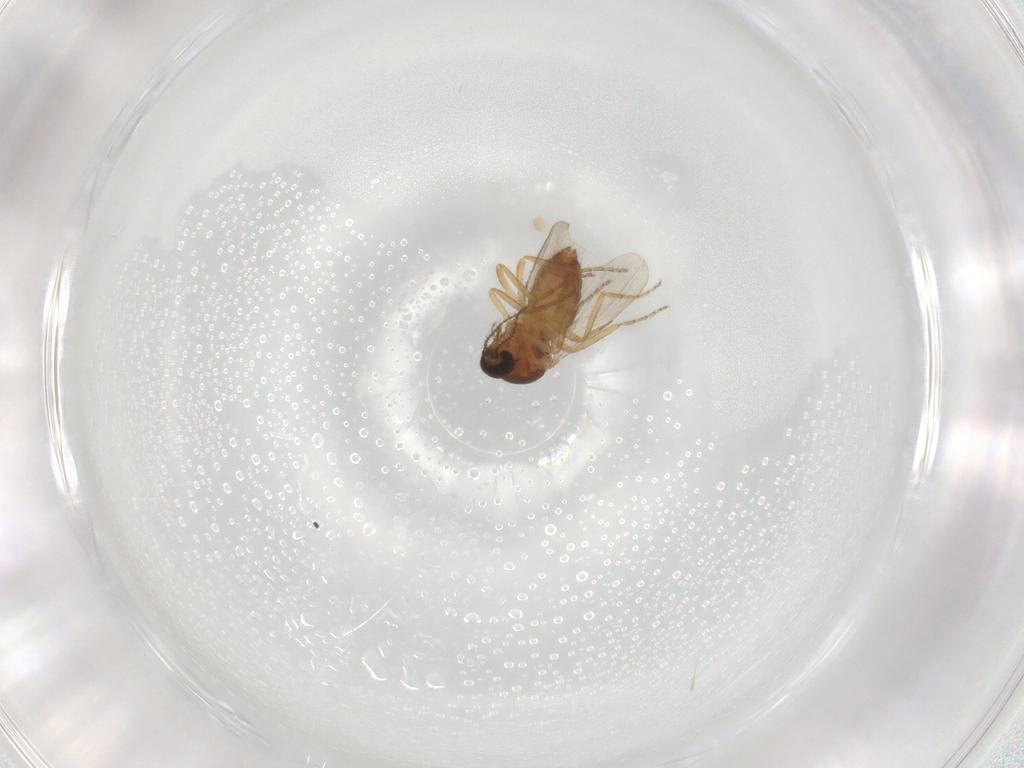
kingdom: Animalia
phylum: Arthropoda
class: Insecta
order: Diptera
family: Ceratopogonidae
